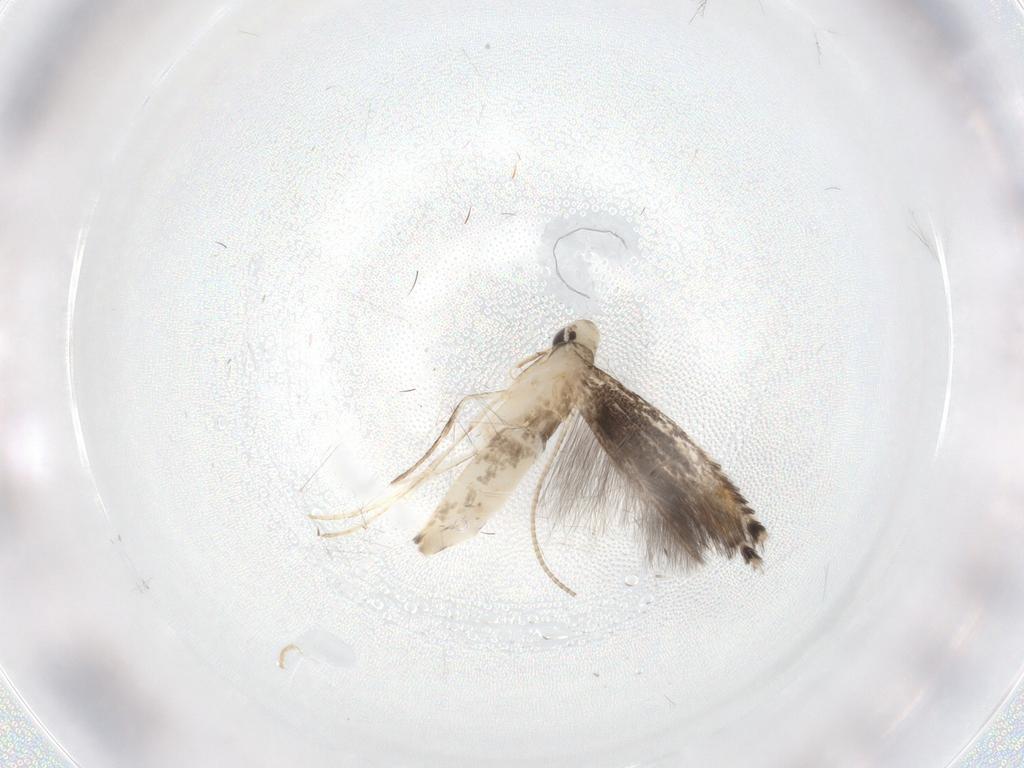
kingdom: Animalia
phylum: Arthropoda
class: Insecta
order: Lepidoptera
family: Gracillariidae
